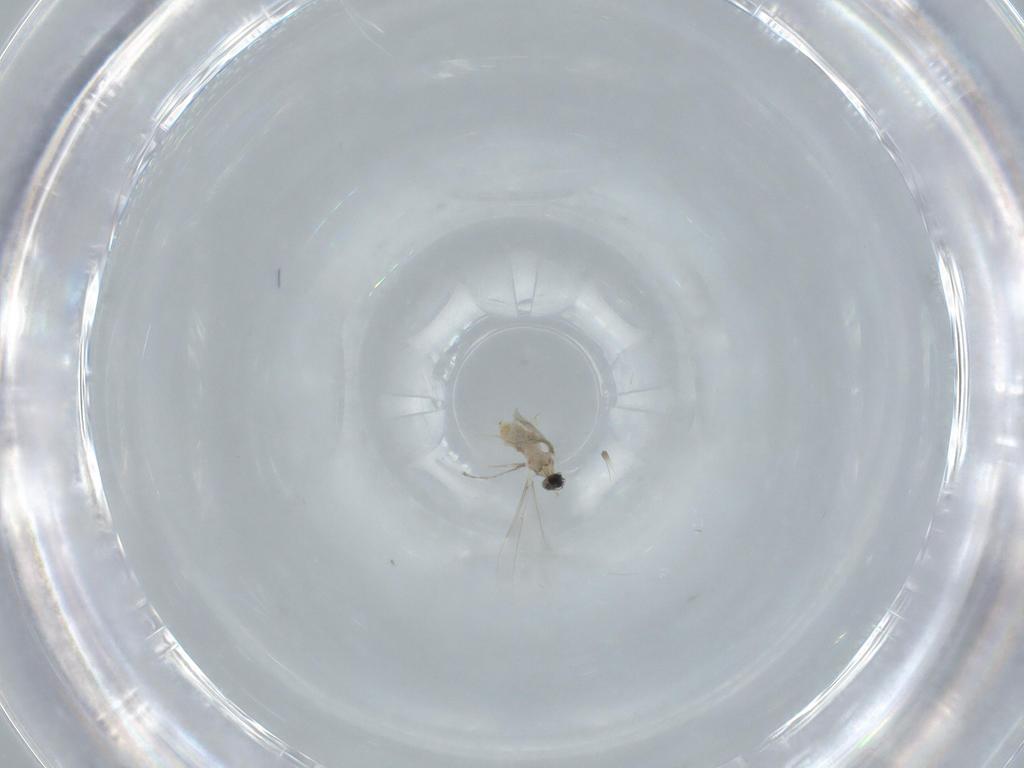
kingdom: Animalia
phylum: Arthropoda
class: Insecta
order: Diptera
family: Cecidomyiidae
